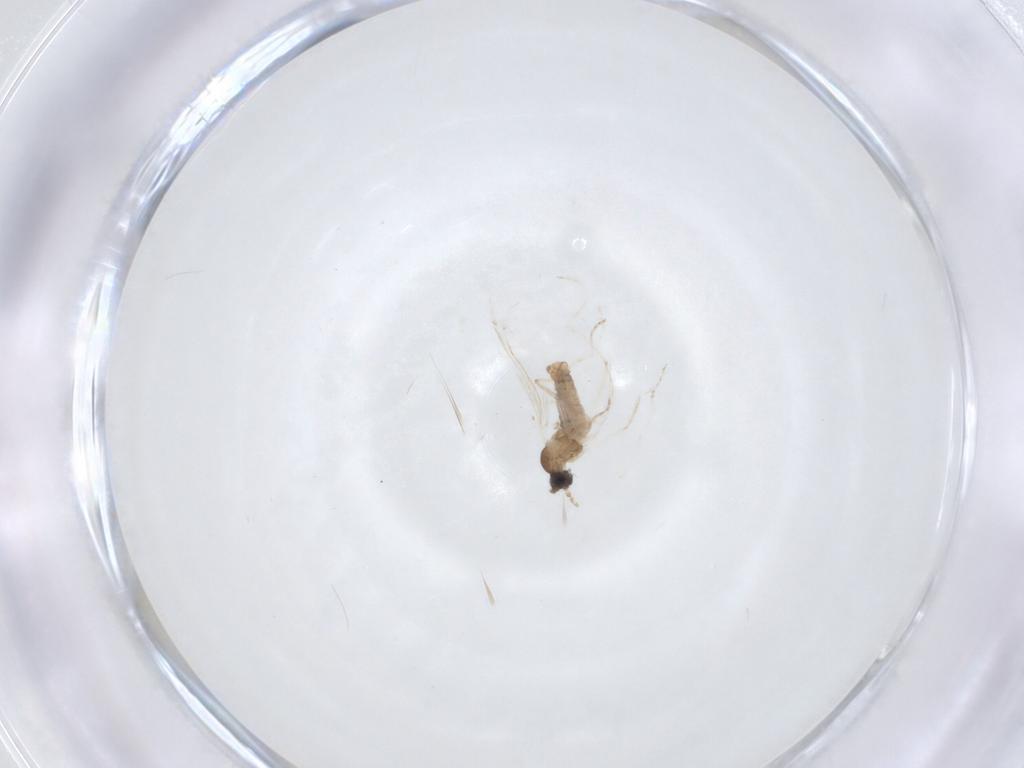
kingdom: Animalia
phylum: Arthropoda
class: Insecta
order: Diptera
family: Cecidomyiidae
